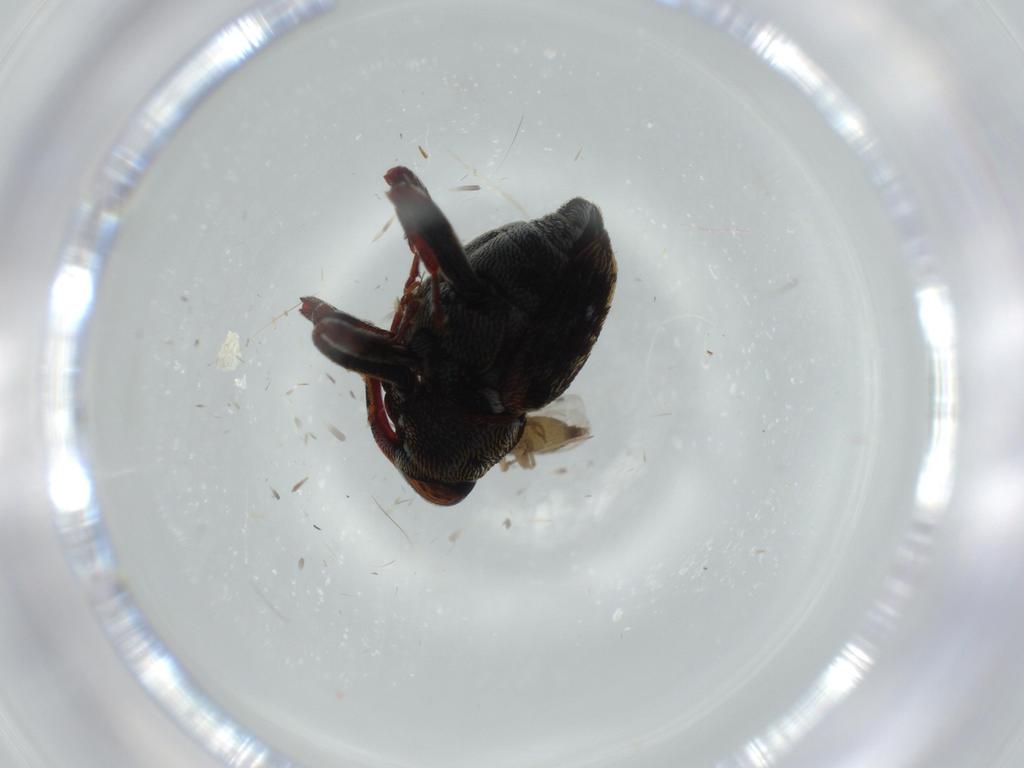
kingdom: Animalia
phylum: Arthropoda
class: Insecta
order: Coleoptera
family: Curculionidae
